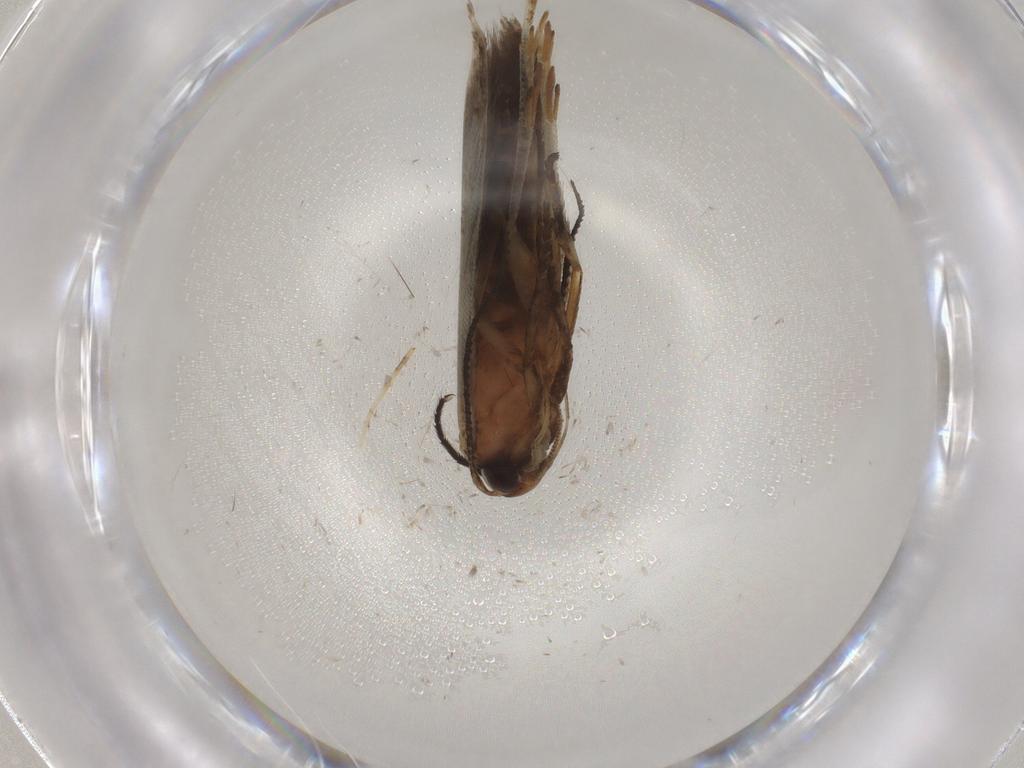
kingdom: Animalia
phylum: Arthropoda
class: Insecta
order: Lepidoptera
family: Gelechiidae
